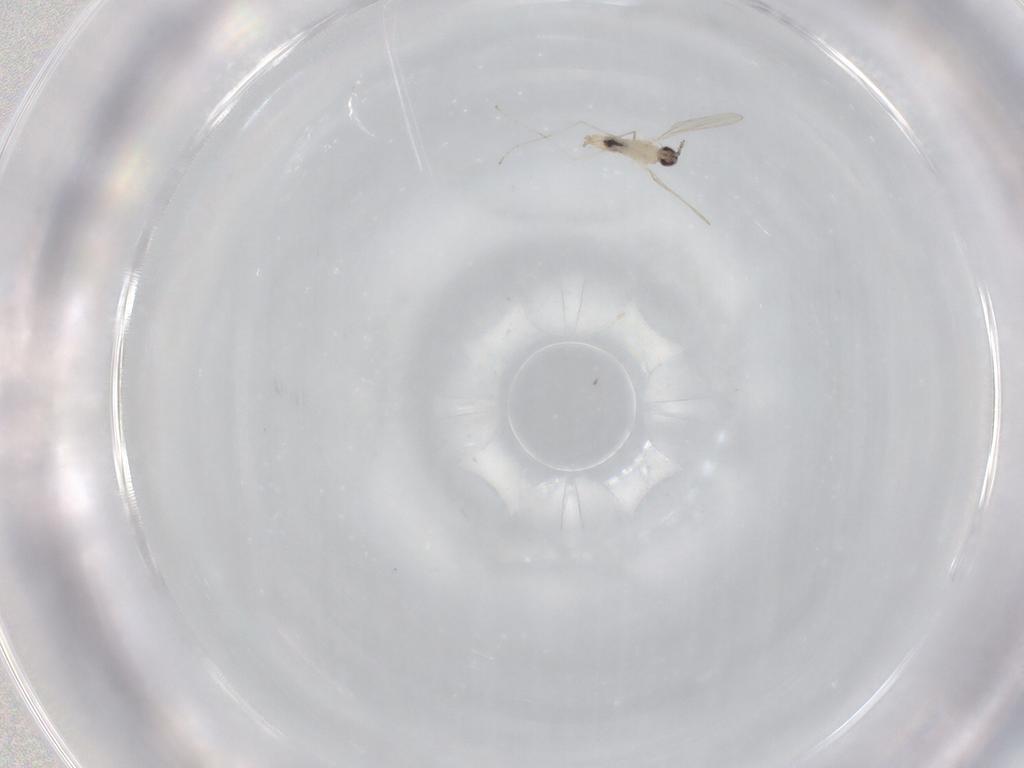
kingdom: Animalia
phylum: Arthropoda
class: Insecta
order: Diptera
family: Cecidomyiidae
